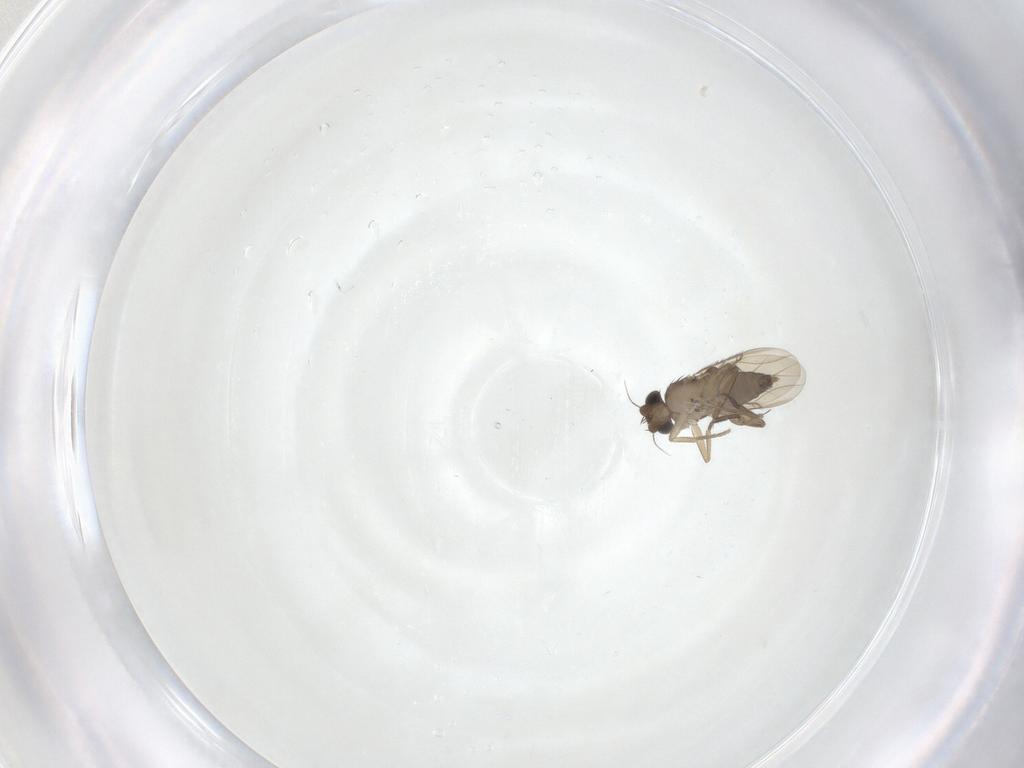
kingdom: Animalia
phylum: Arthropoda
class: Insecta
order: Diptera
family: Phoridae
